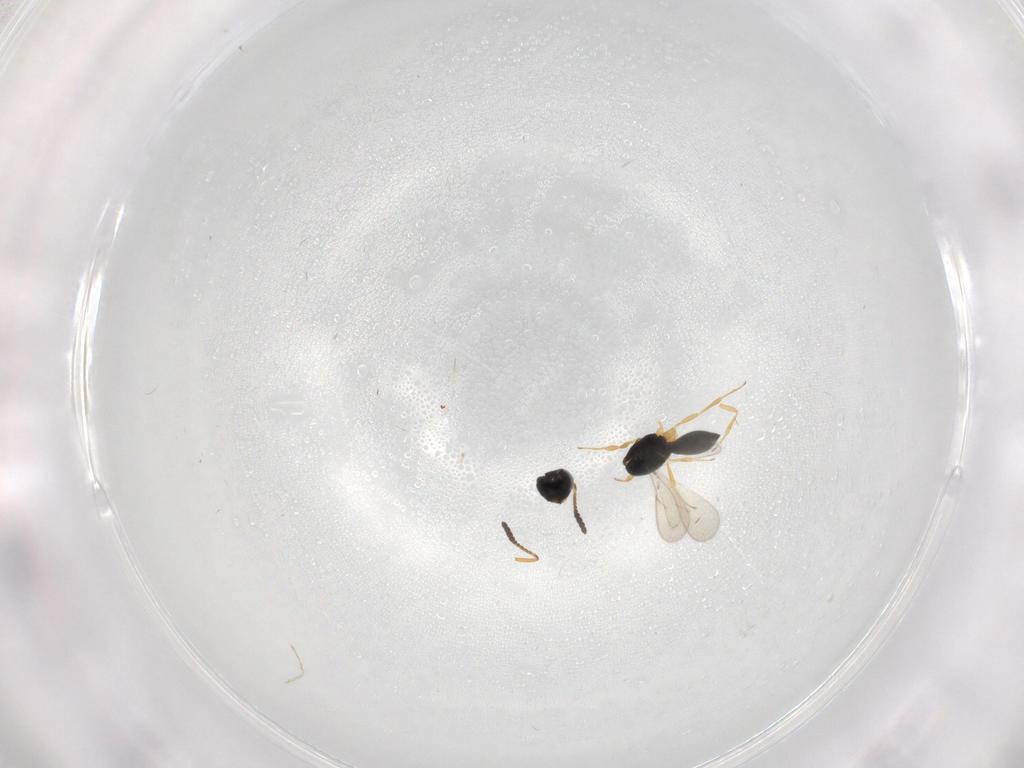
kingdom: Animalia
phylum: Arthropoda
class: Insecta
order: Hymenoptera
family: Scelionidae
